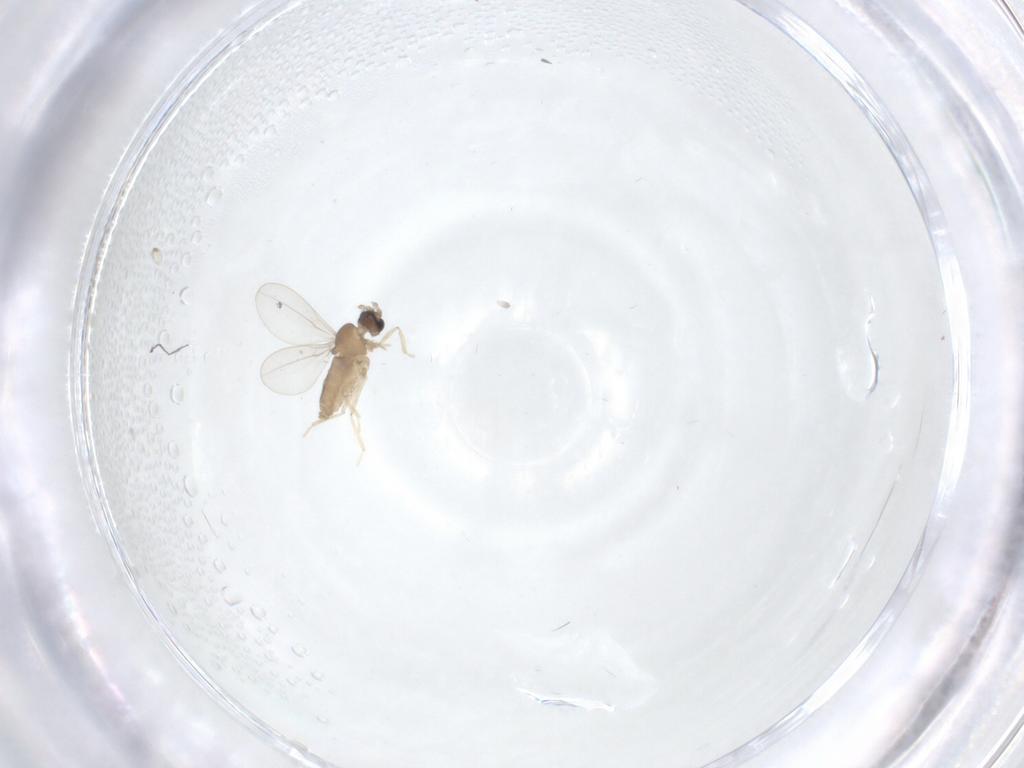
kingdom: Animalia
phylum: Arthropoda
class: Insecta
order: Diptera
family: Cecidomyiidae
